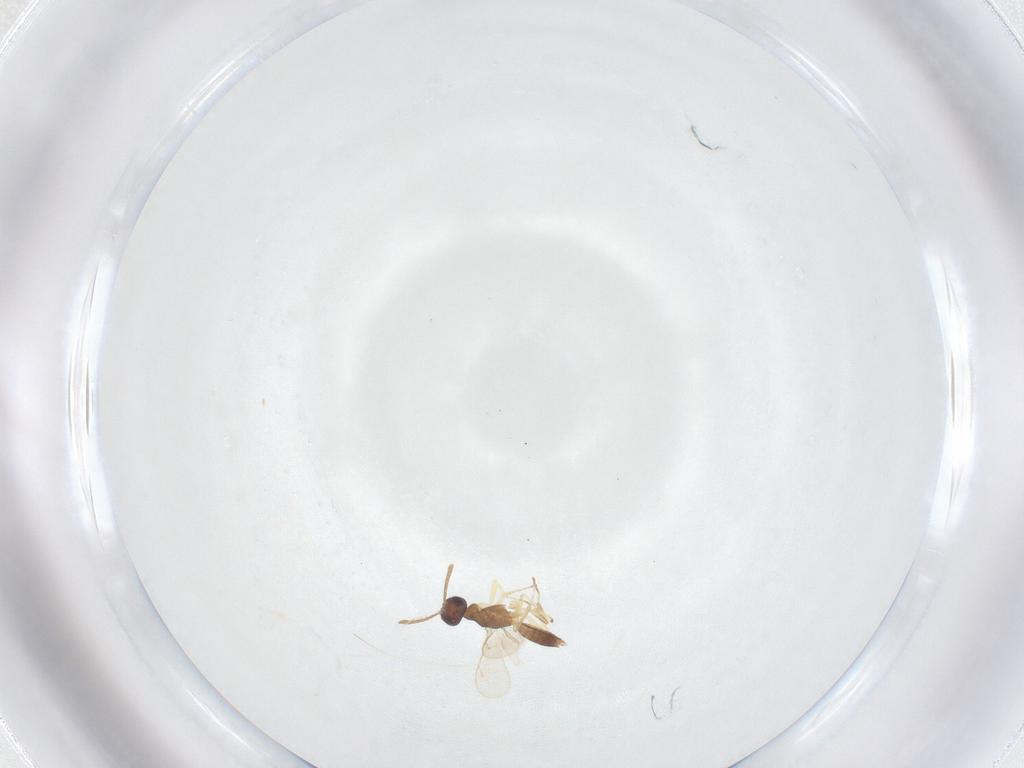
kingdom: Animalia
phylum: Arthropoda
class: Insecta
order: Hymenoptera
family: Eupelmidae
